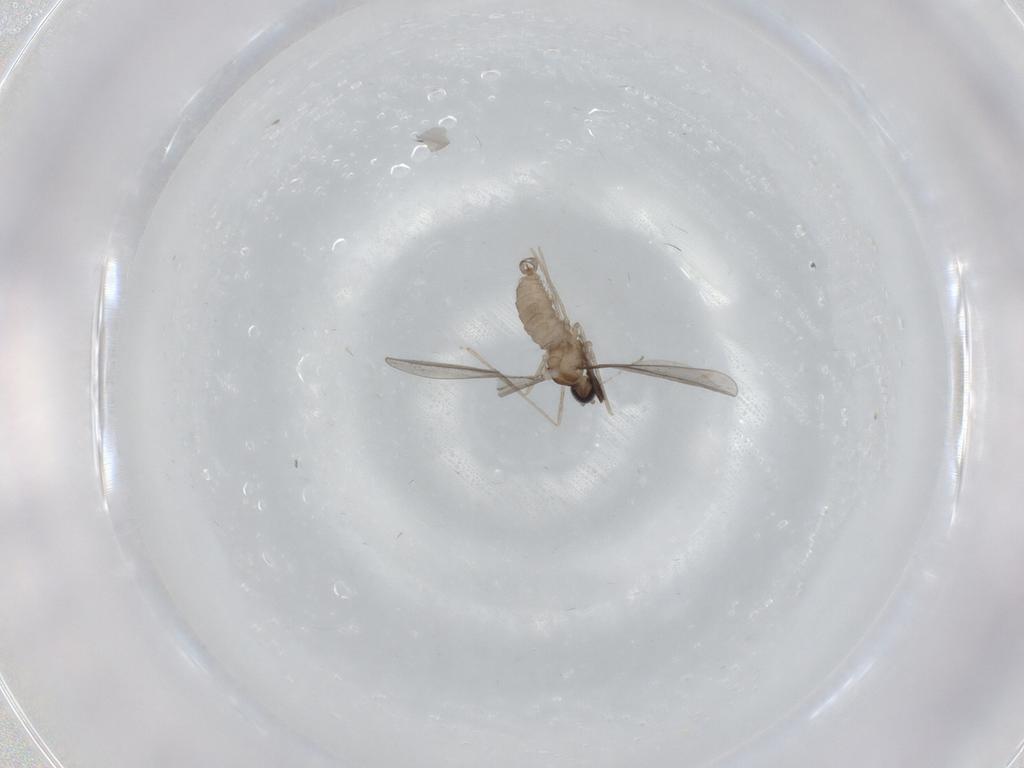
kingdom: Animalia
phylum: Arthropoda
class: Insecta
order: Diptera
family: Cecidomyiidae
